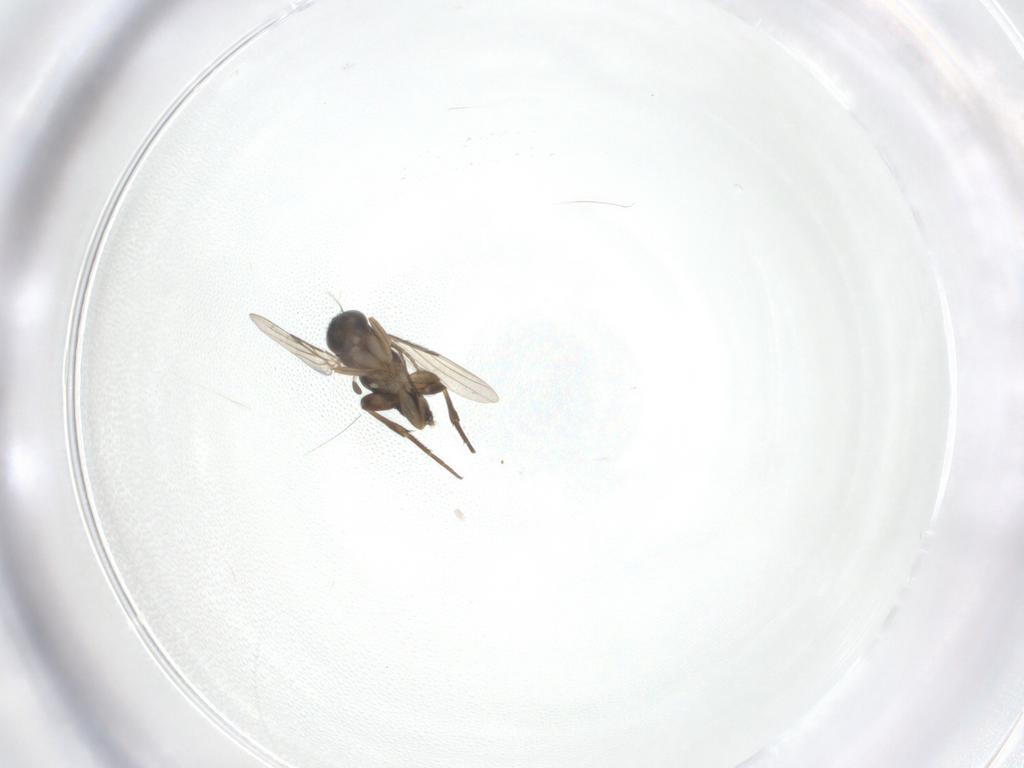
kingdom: Animalia
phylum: Arthropoda
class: Insecta
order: Diptera
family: Phoridae
